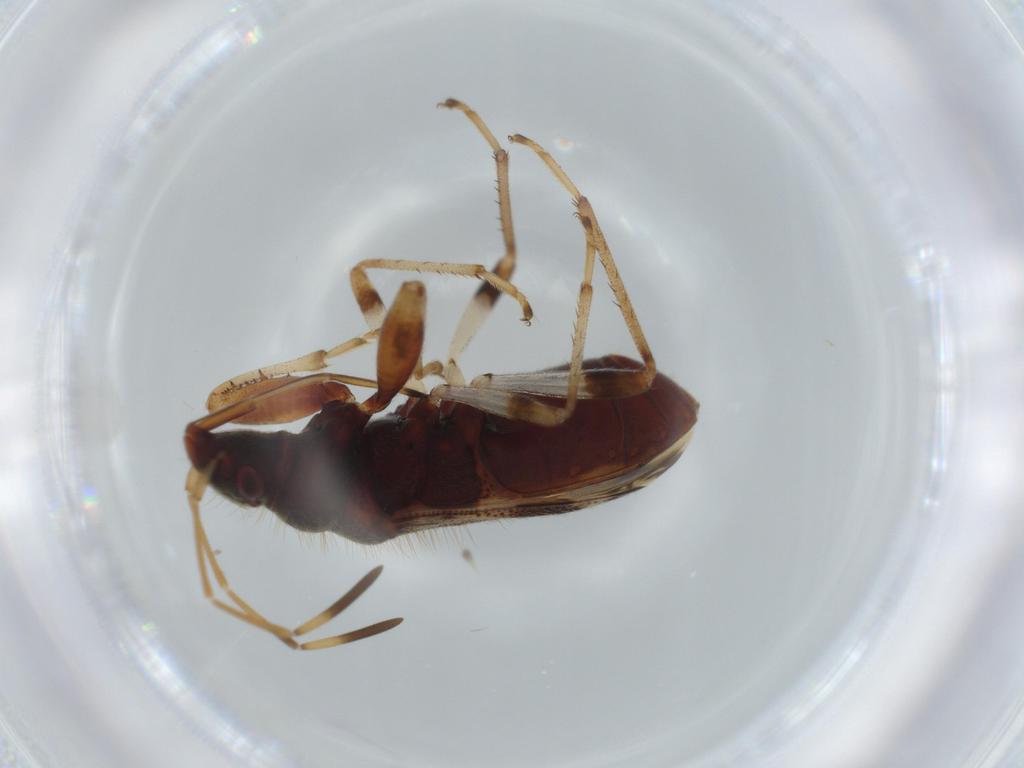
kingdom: Animalia
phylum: Arthropoda
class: Insecta
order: Hemiptera
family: Rhyparochromidae
